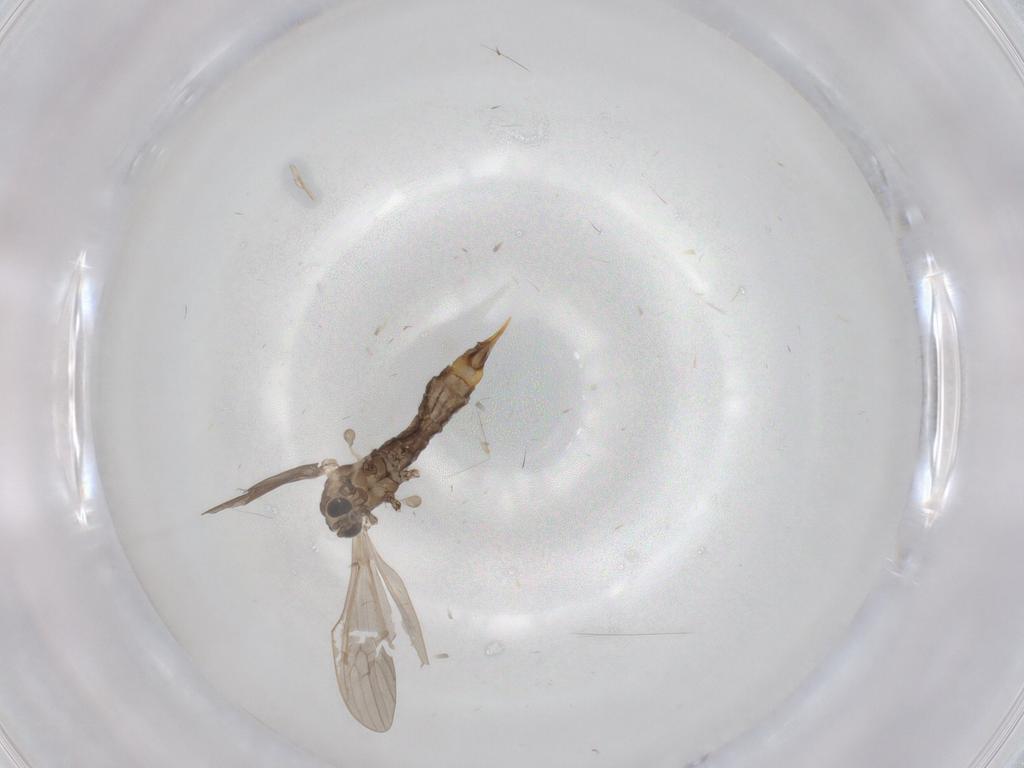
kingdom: Animalia
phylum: Arthropoda
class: Insecta
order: Diptera
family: Limoniidae
